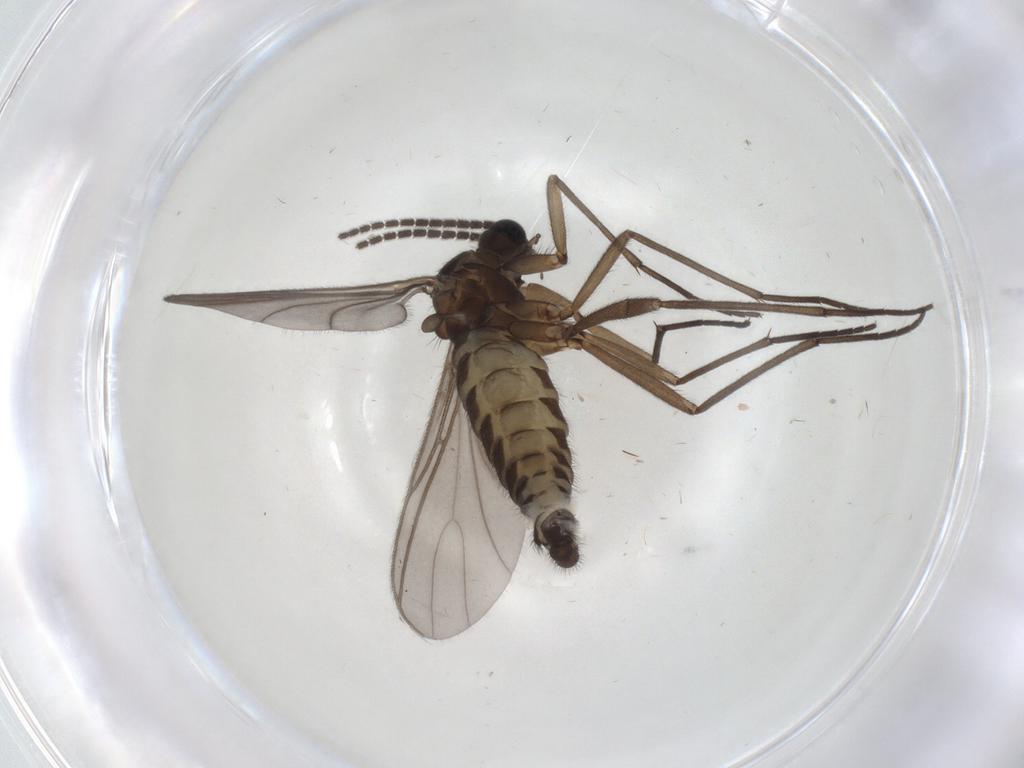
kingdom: Animalia
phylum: Arthropoda
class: Insecta
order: Diptera
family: Sciaridae
